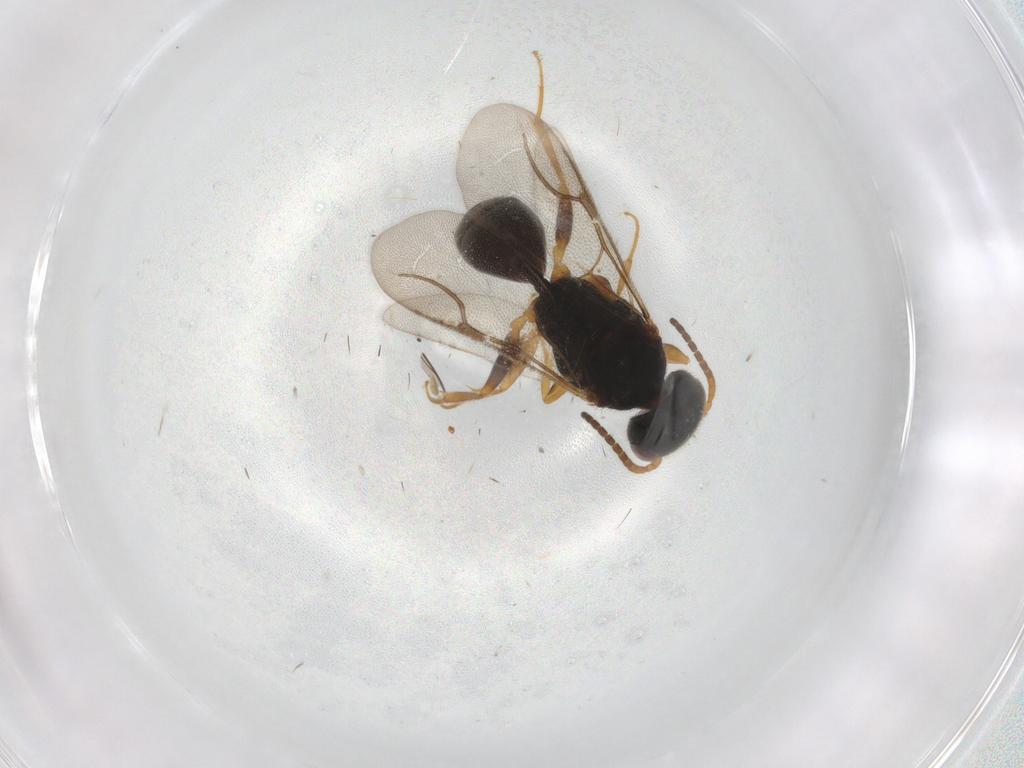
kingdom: Animalia
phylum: Arthropoda
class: Insecta
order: Hymenoptera
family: Bethylidae
